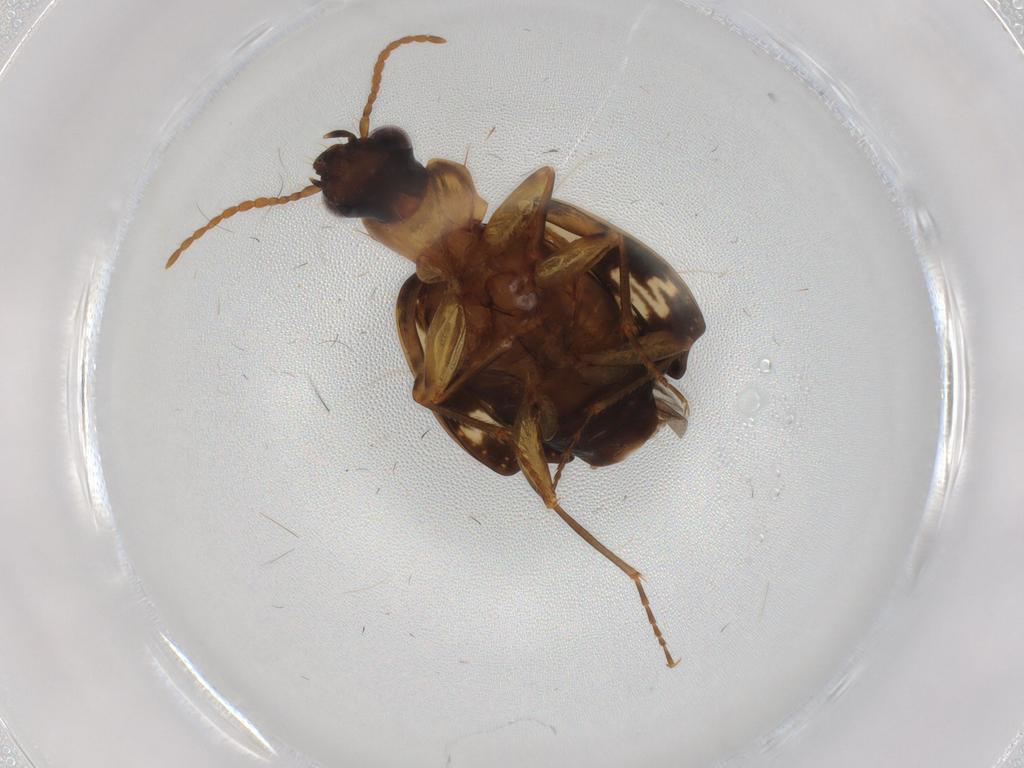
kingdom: Animalia
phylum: Arthropoda
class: Insecta
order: Coleoptera
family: Carabidae
